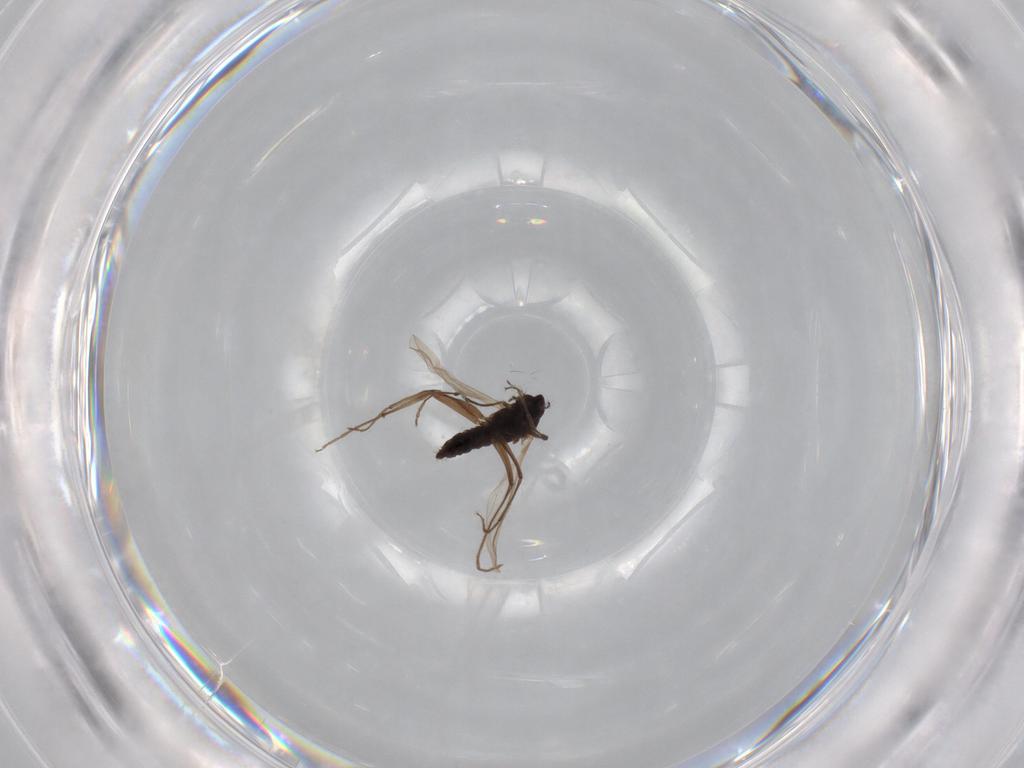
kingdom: Animalia
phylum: Arthropoda
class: Insecta
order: Diptera
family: Chironomidae
